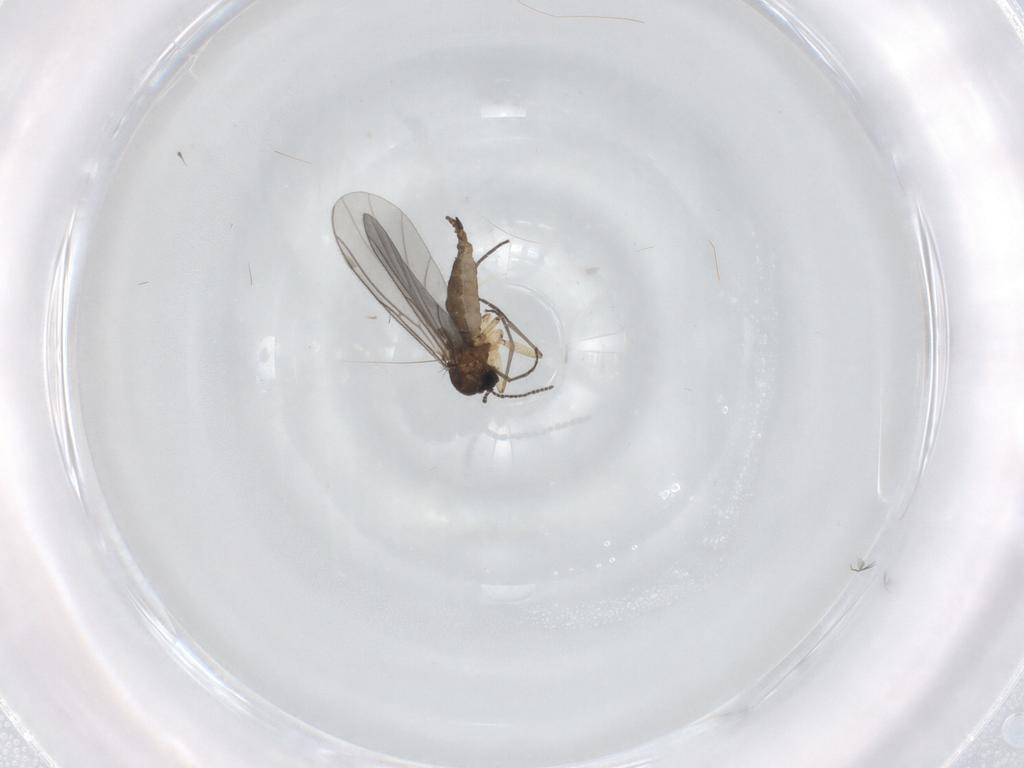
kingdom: Animalia
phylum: Arthropoda
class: Insecta
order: Diptera
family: Sciaridae
